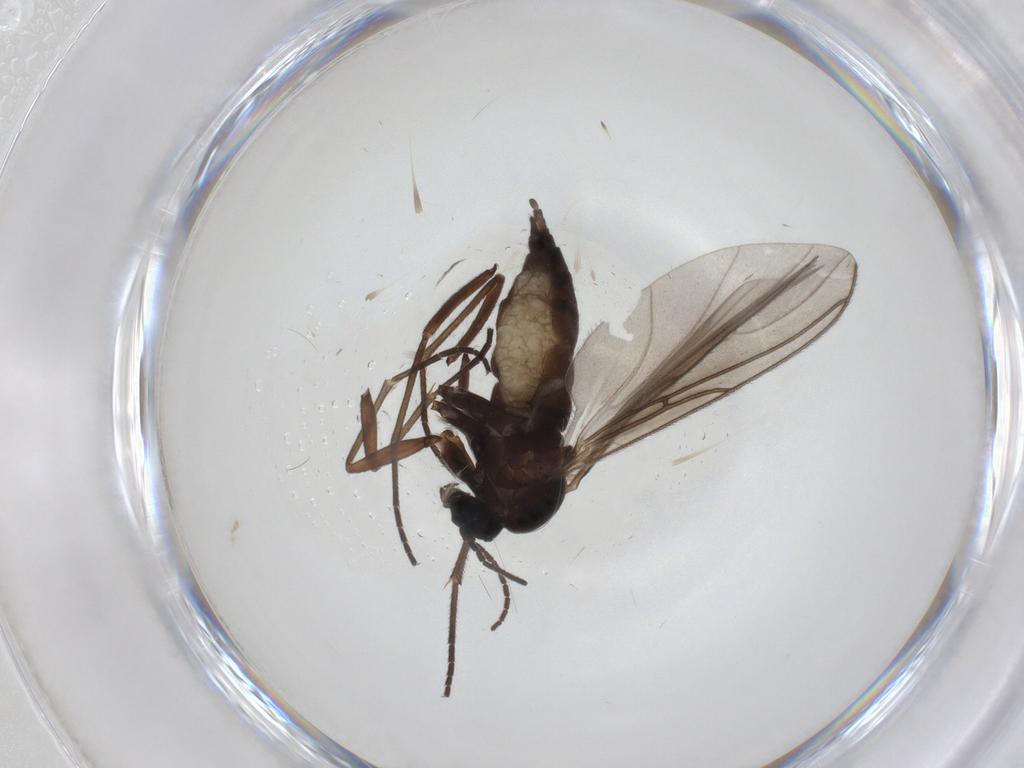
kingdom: Animalia
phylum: Arthropoda
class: Insecta
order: Diptera
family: Sciaridae
